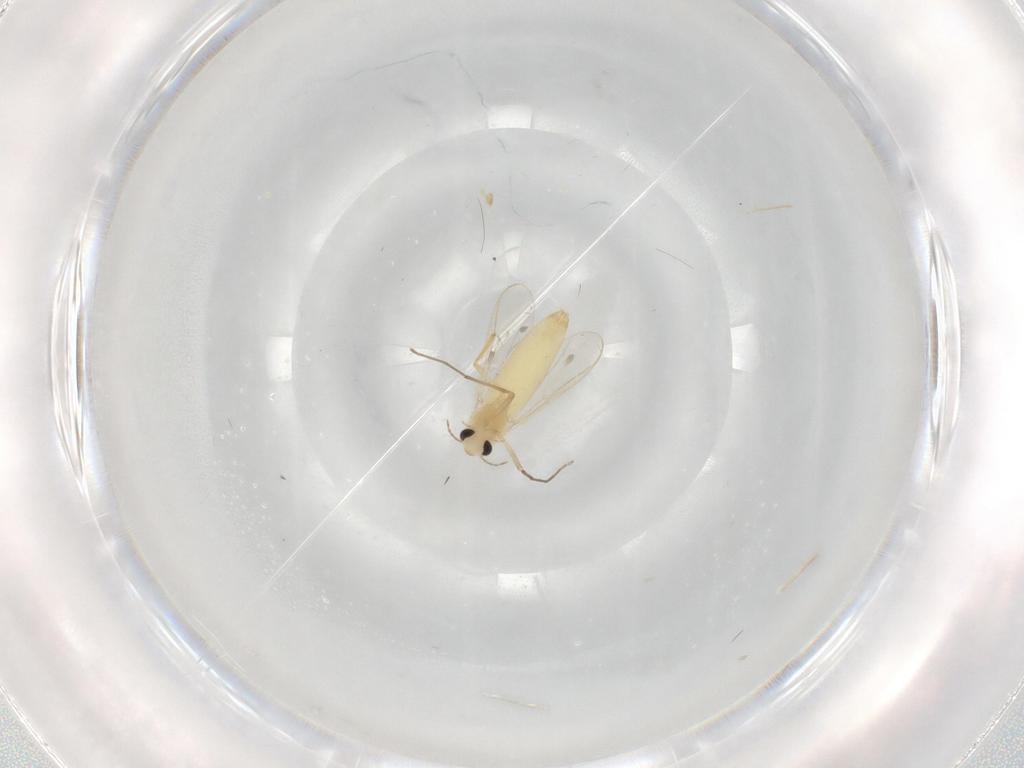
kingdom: Animalia
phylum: Arthropoda
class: Insecta
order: Diptera
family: Chironomidae
